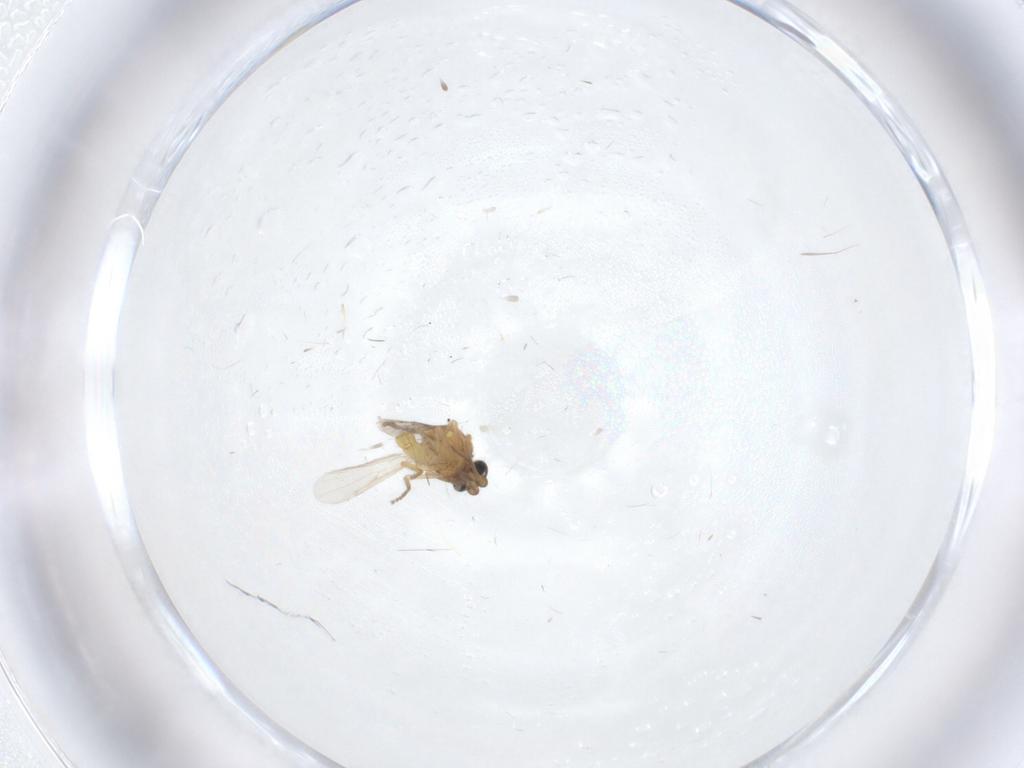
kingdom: Animalia
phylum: Arthropoda
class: Insecta
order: Diptera
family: Ceratopogonidae
